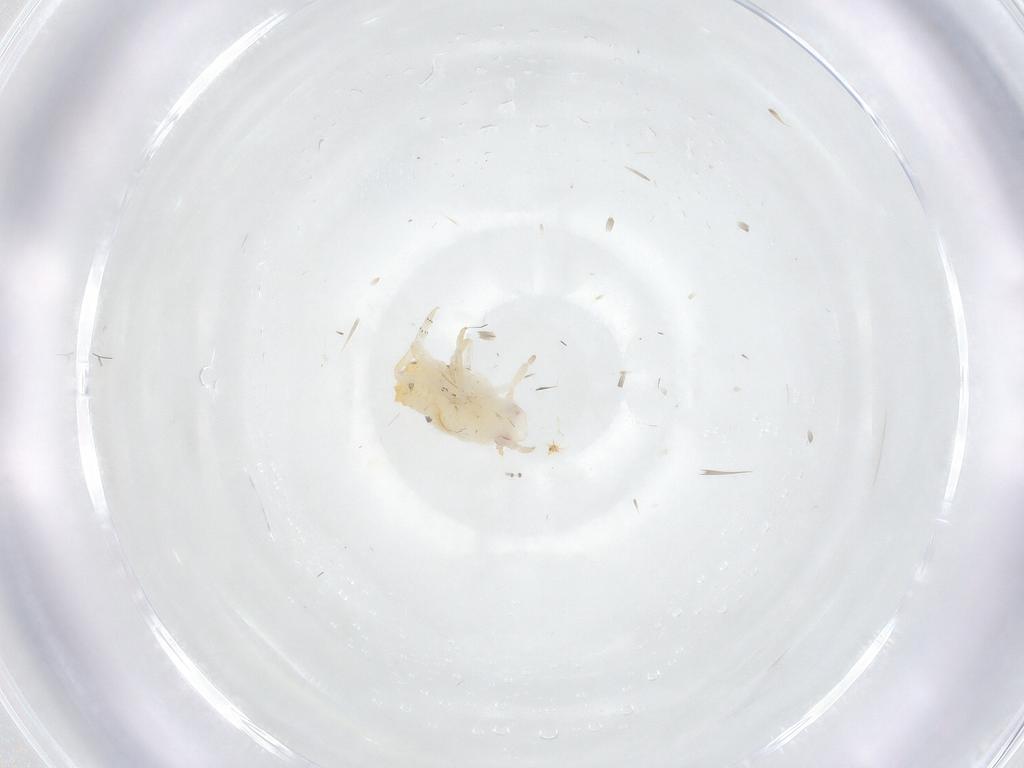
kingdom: Animalia
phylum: Arthropoda
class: Insecta
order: Hemiptera
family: Fulgoroidea_incertae_sedis
